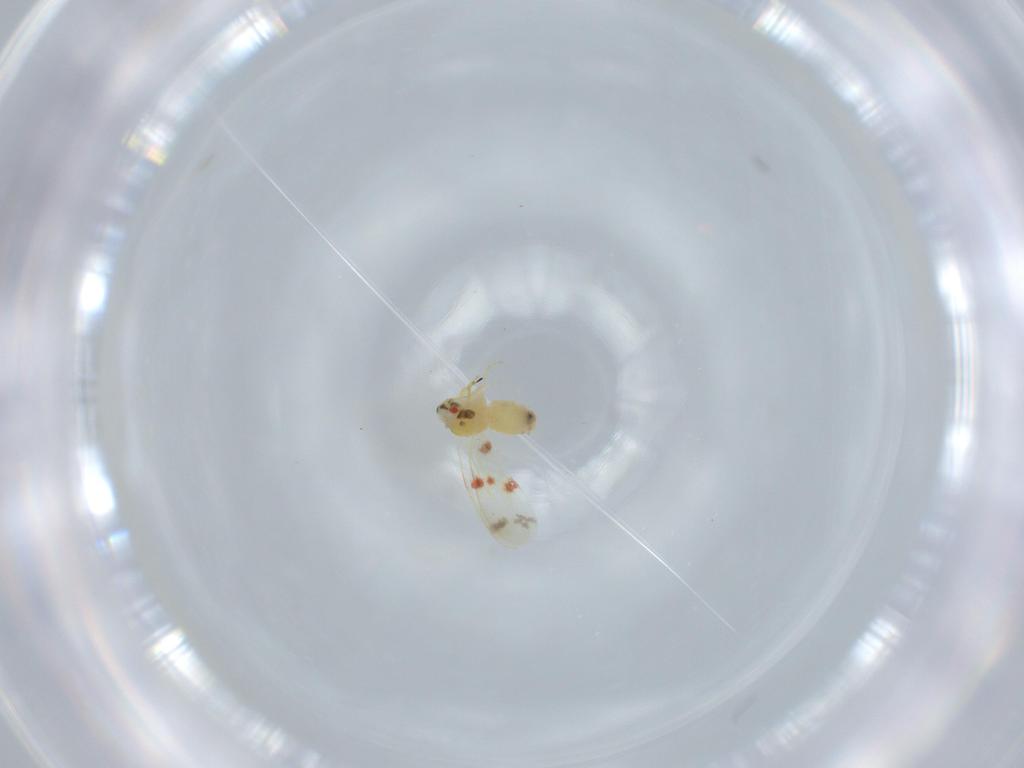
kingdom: Animalia
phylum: Arthropoda
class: Insecta
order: Hemiptera
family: Aleyrodidae
